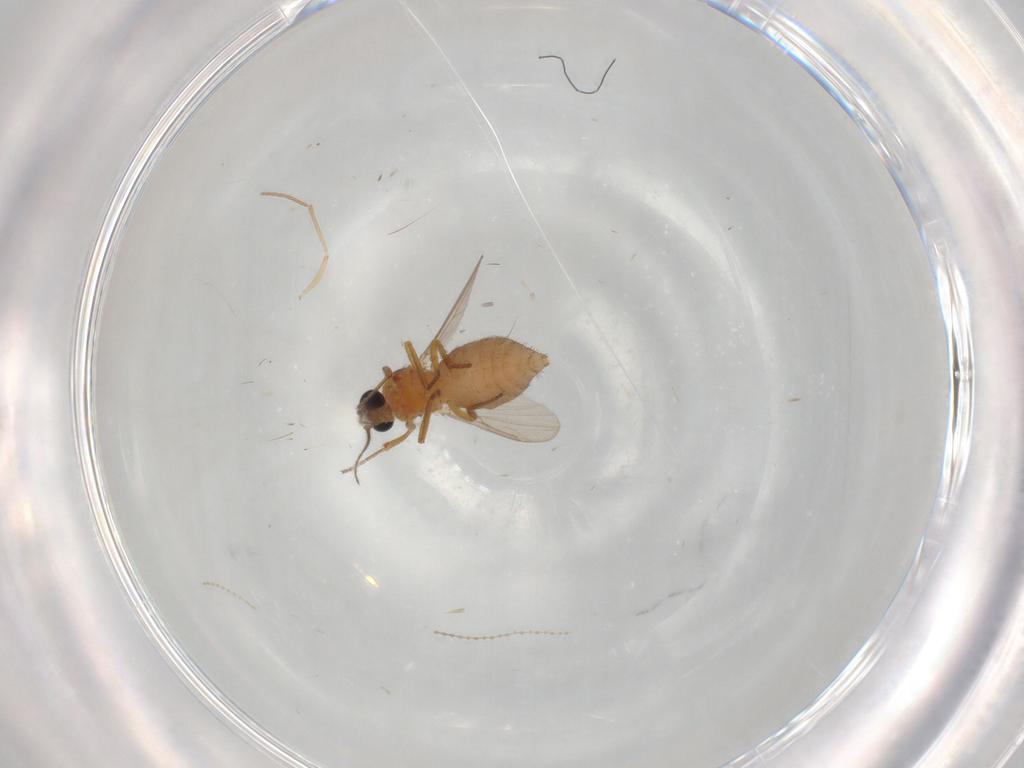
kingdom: Animalia
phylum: Arthropoda
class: Insecta
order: Diptera
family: Cecidomyiidae
